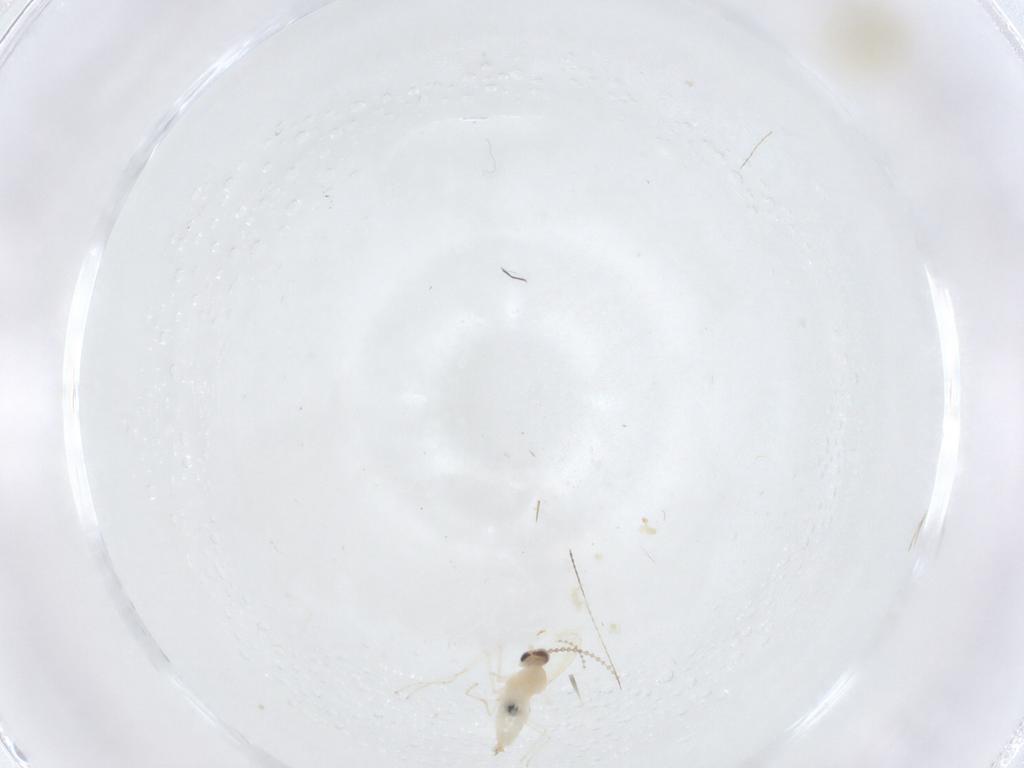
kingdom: Animalia
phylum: Arthropoda
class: Insecta
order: Diptera
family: Cecidomyiidae
